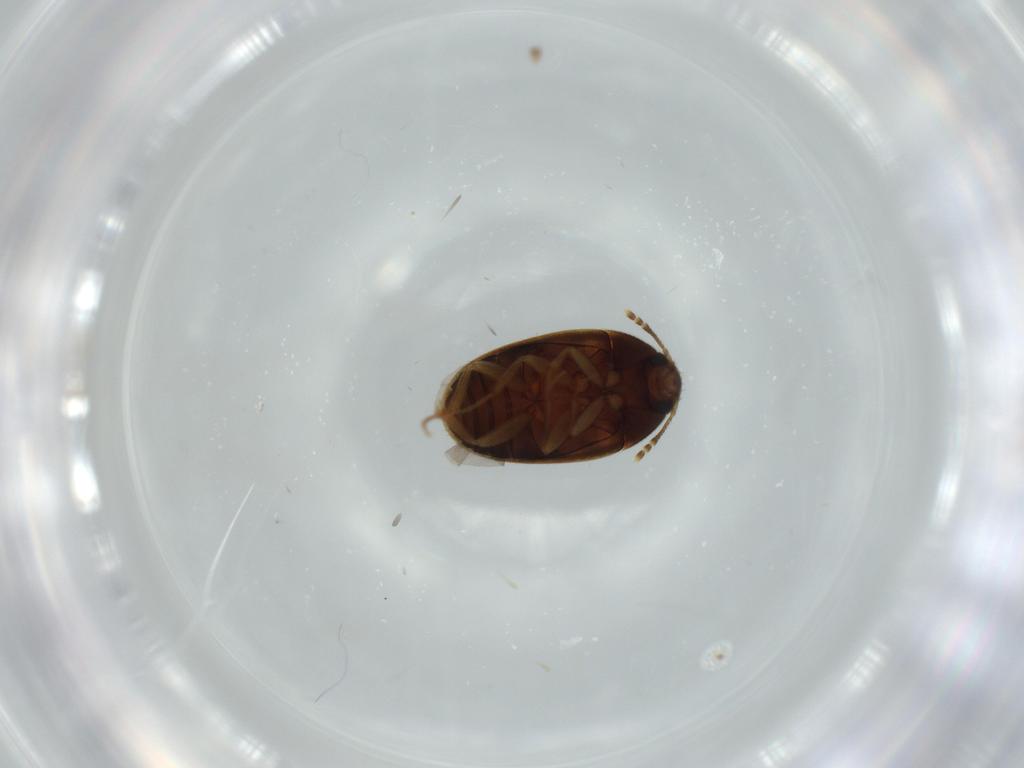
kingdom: Animalia
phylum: Arthropoda
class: Insecta
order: Coleoptera
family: Mycetophagidae
